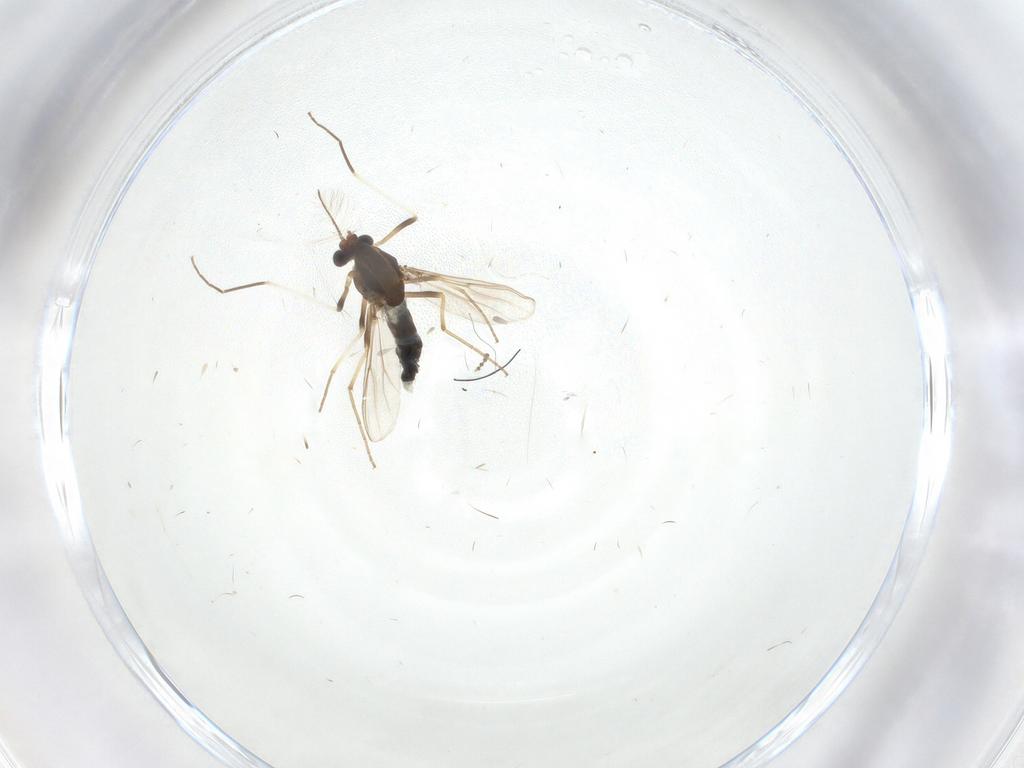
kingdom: Animalia
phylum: Arthropoda
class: Insecta
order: Diptera
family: Chironomidae
